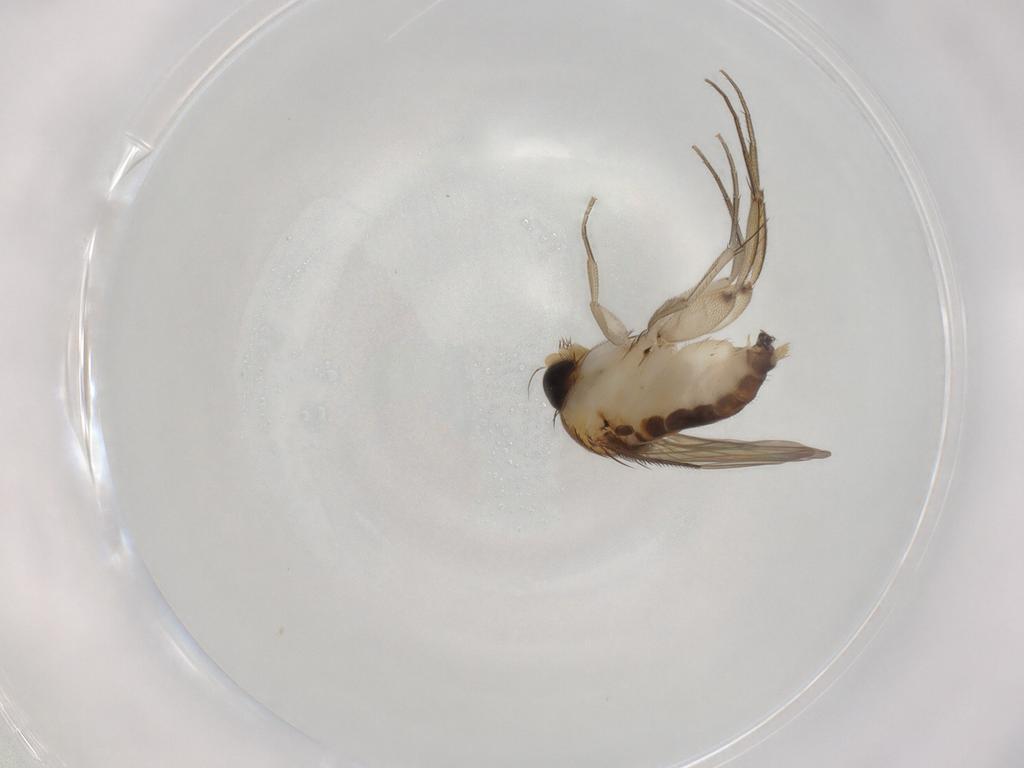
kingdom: Animalia
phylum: Arthropoda
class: Insecta
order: Diptera
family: Phoridae
